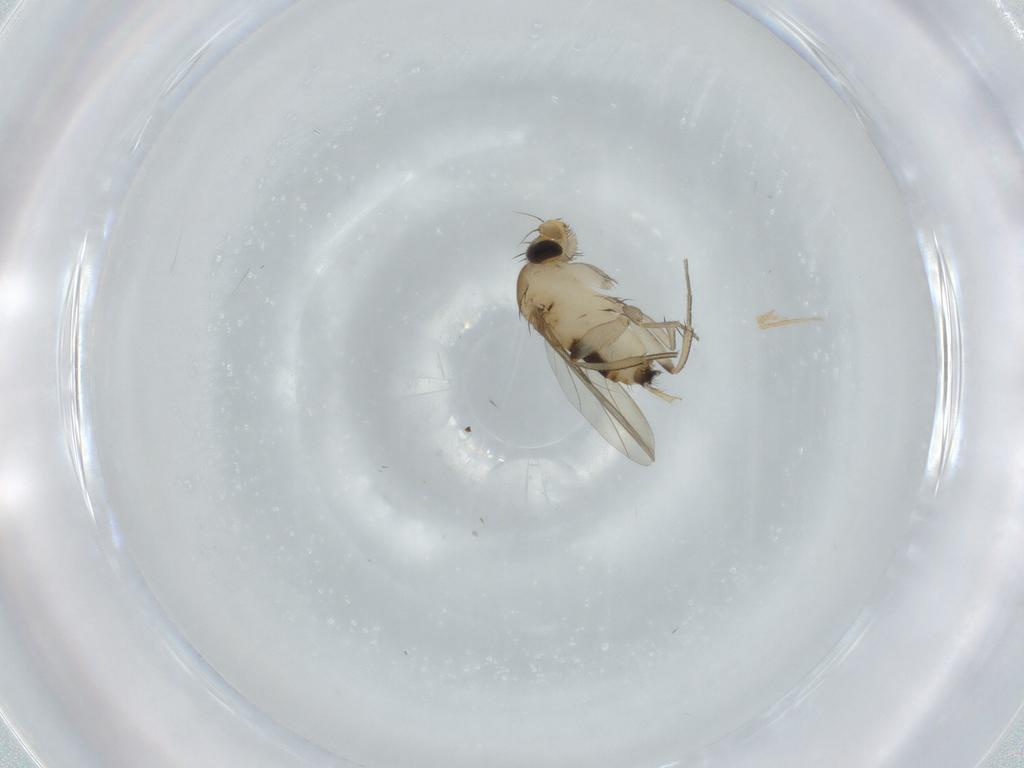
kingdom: Animalia
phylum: Arthropoda
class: Insecta
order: Diptera
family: Phoridae
